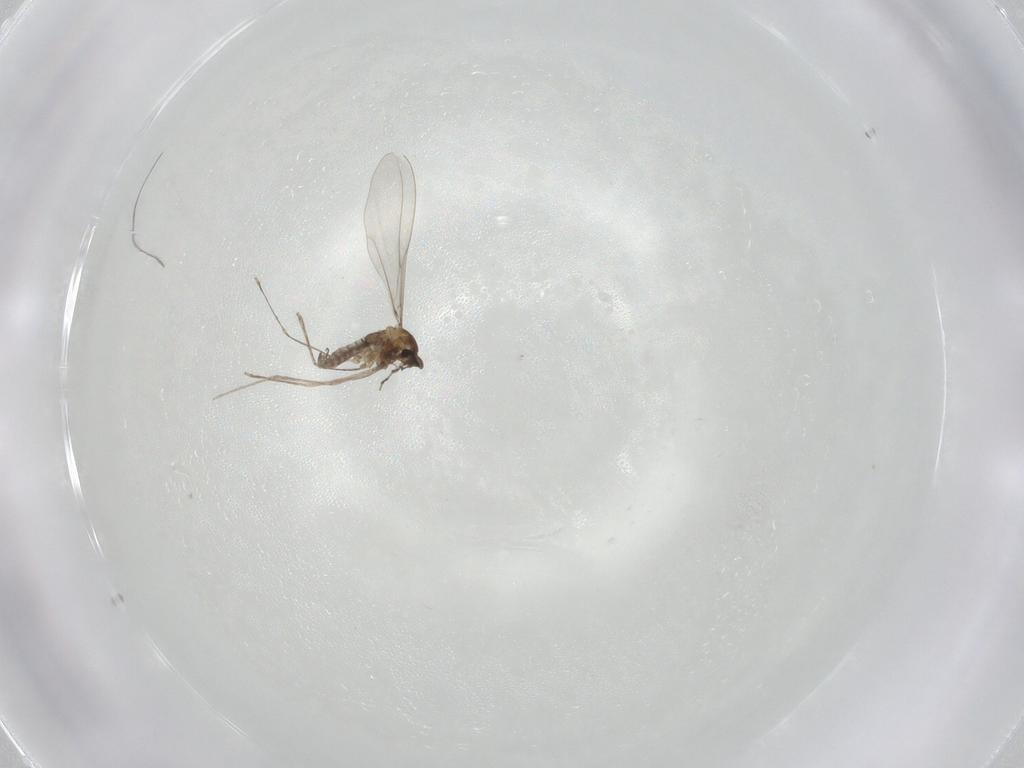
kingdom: Animalia
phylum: Arthropoda
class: Insecta
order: Diptera
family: Cecidomyiidae
